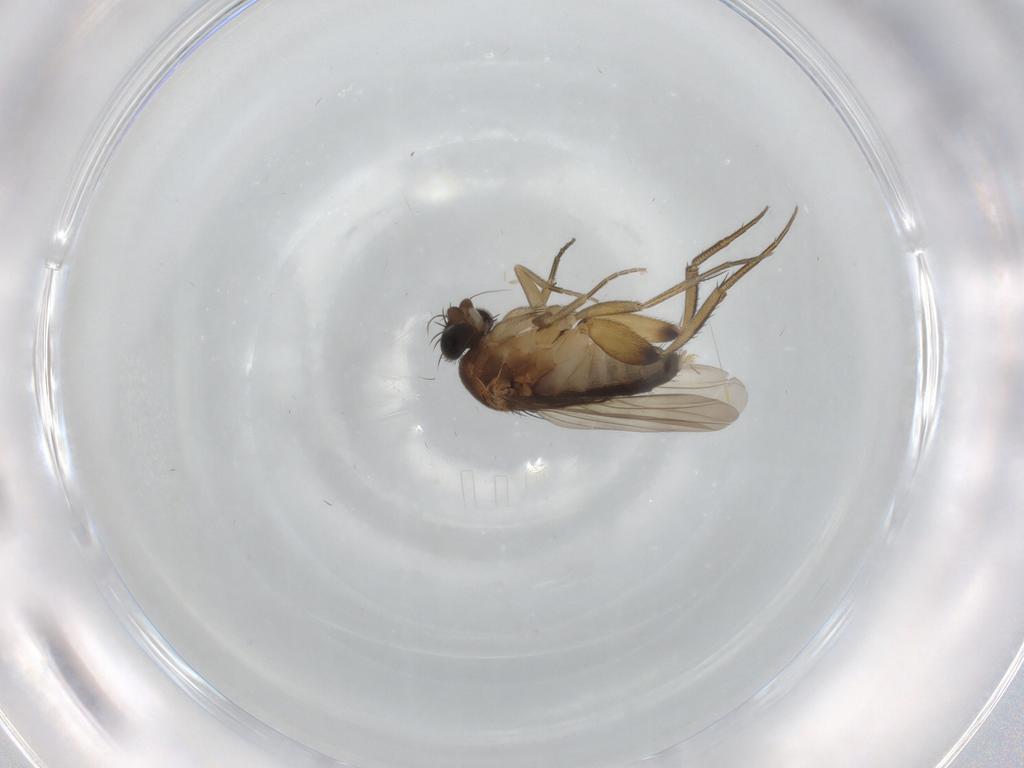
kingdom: Animalia
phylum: Arthropoda
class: Insecta
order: Diptera
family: Phoridae
